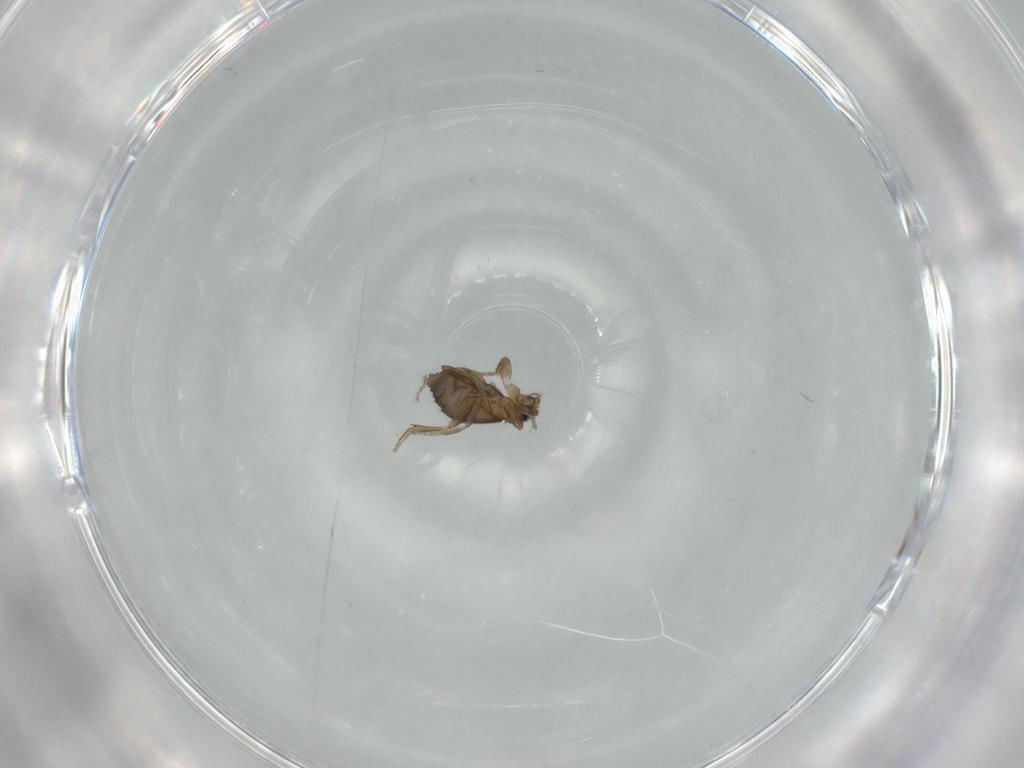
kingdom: Animalia
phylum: Arthropoda
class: Insecta
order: Diptera
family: Phoridae
